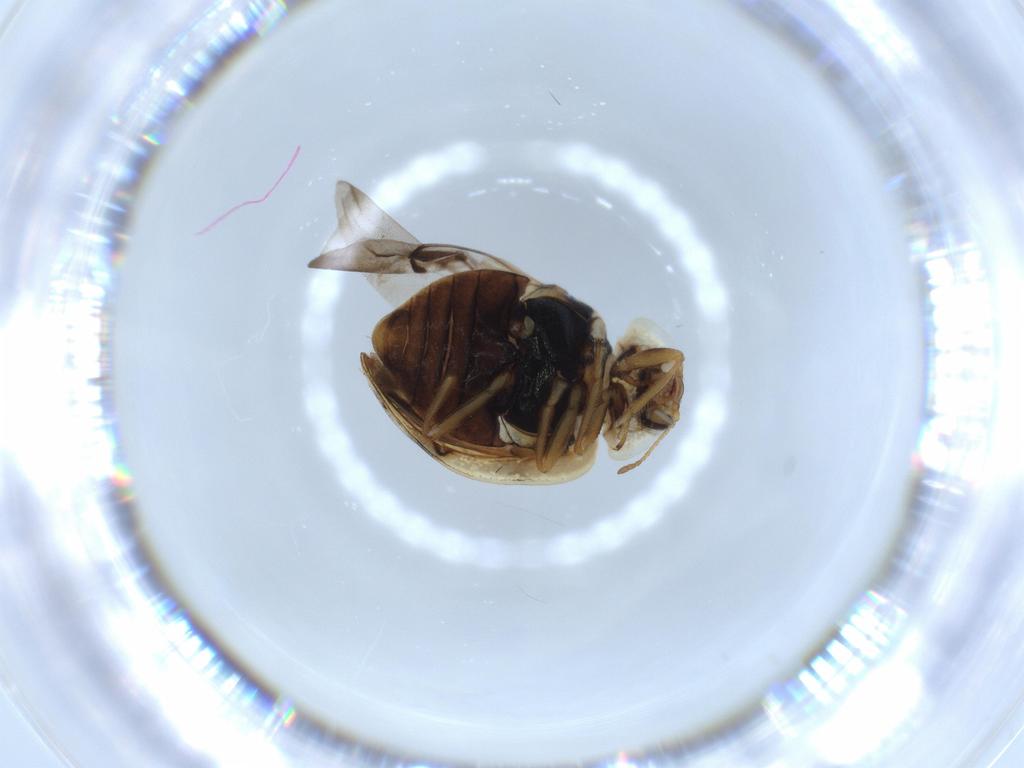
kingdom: Animalia
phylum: Arthropoda
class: Insecta
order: Coleoptera
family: Coccinellidae
